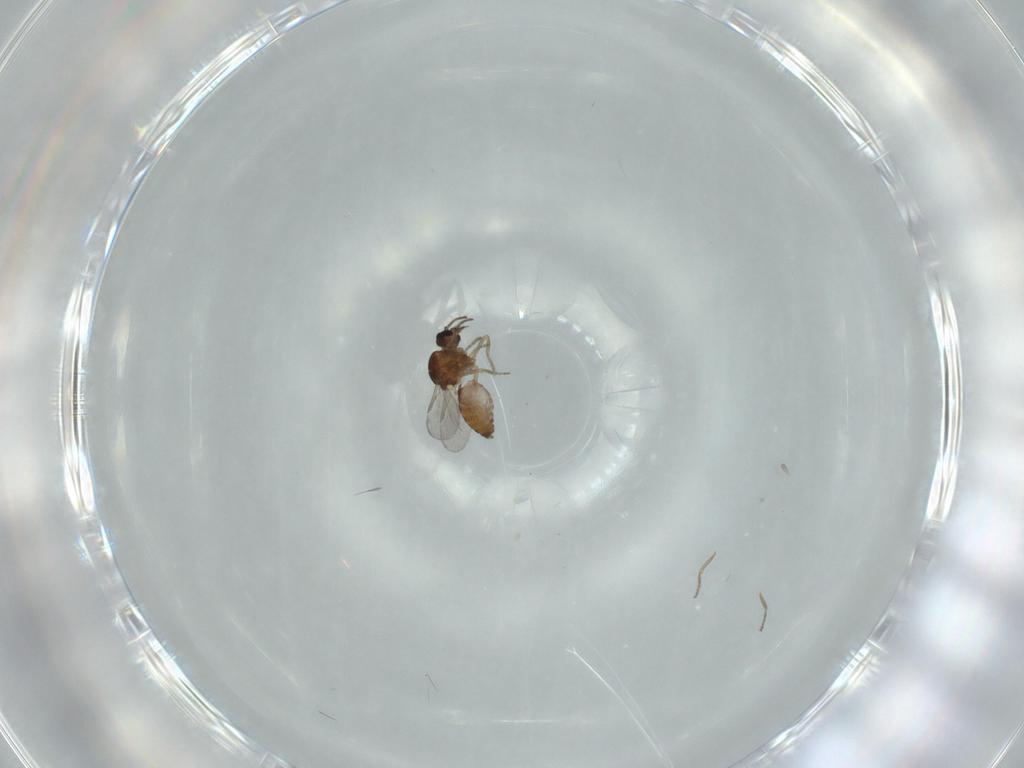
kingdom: Animalia
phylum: Arthropoda
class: Insecta
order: Diptera
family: Ceratopogonidae
